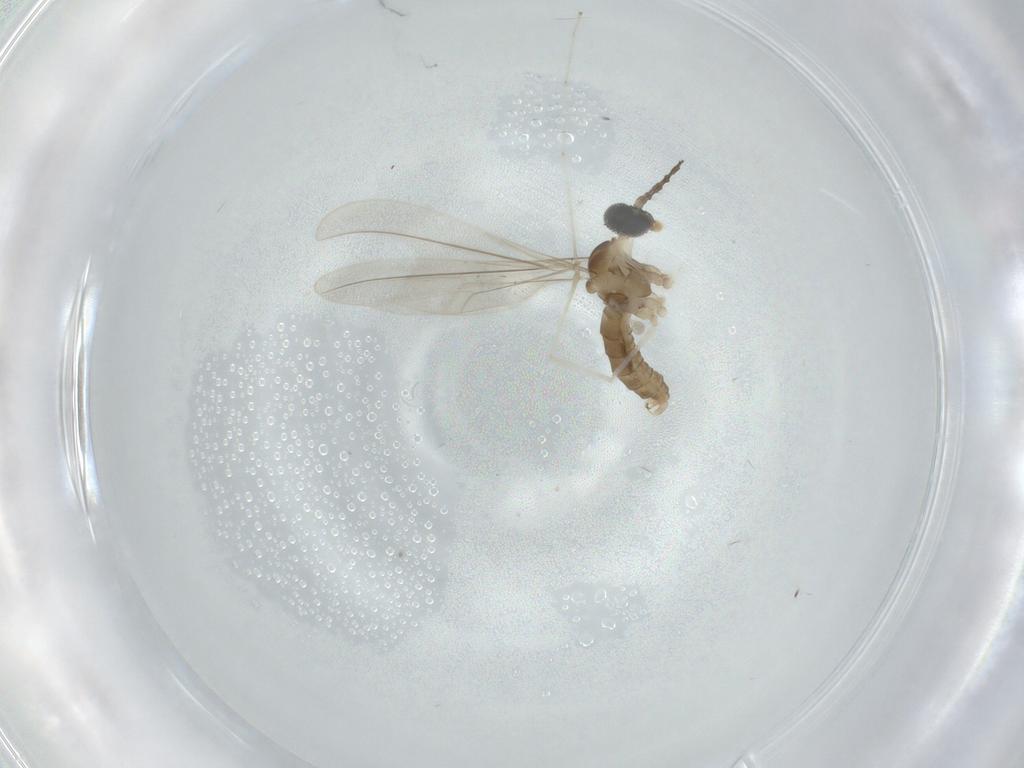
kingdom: Animalia
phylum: Arthropoda
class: Insecta
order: Diptera
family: Cecidomyiidae
